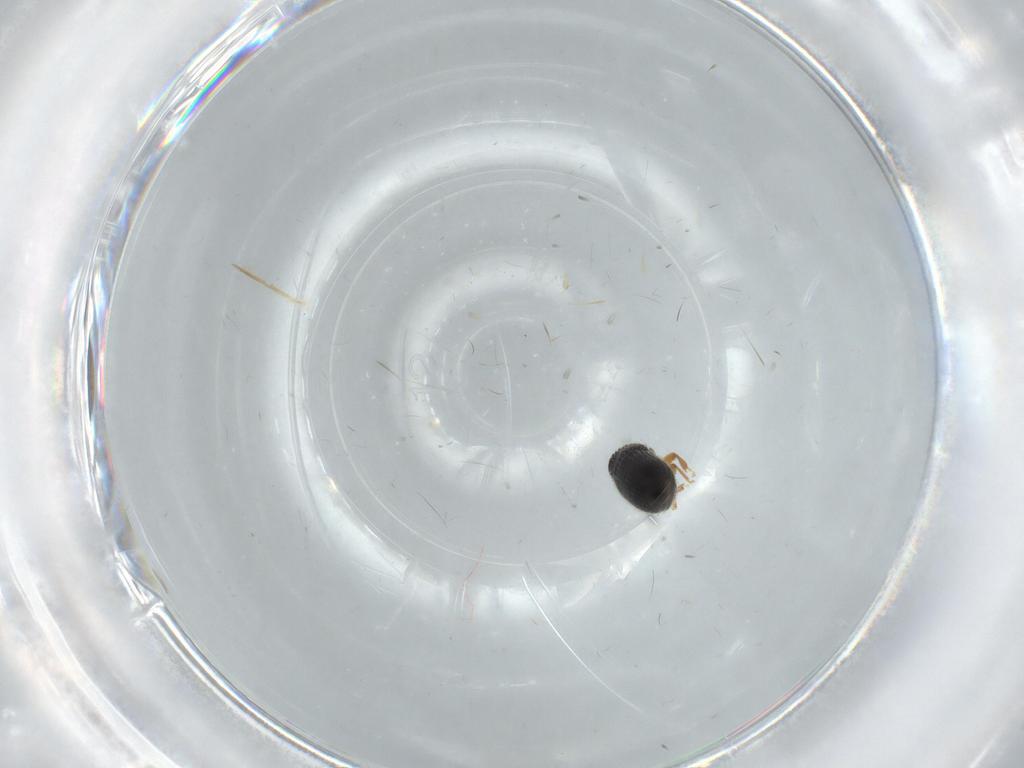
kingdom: Animalia
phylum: Arthropoda
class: Insecta
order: Coleoptera
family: Curculionidae
